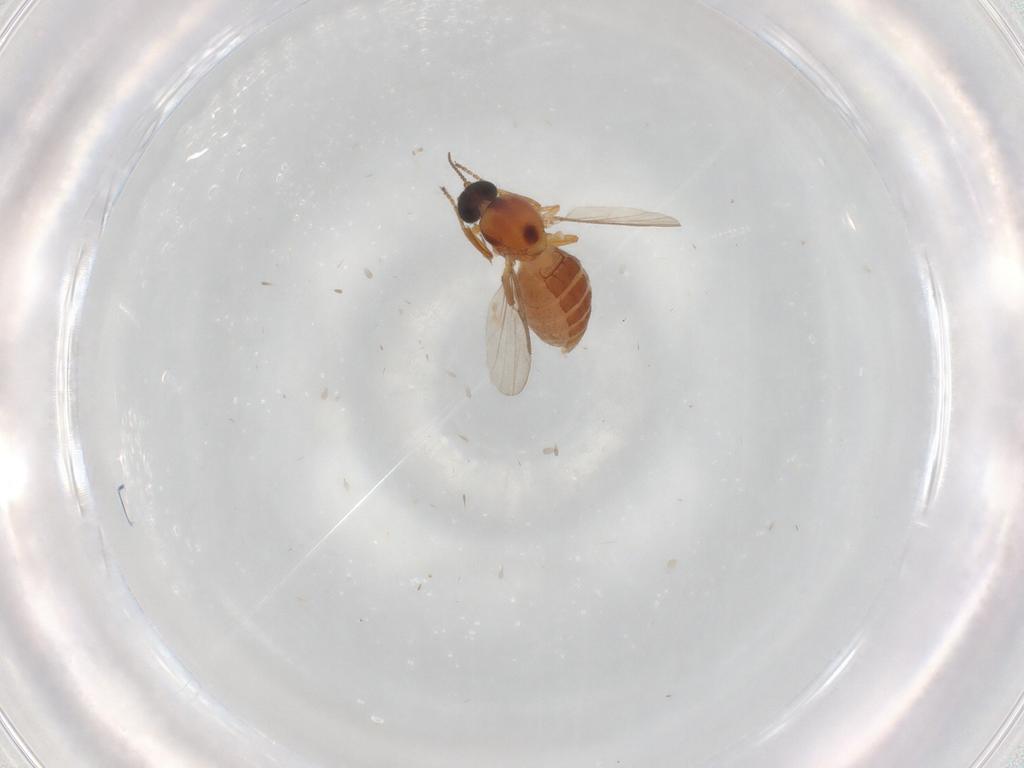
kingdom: Animalia
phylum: Arthropoda
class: Insecta
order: Diptera
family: Ceratopogonidae
